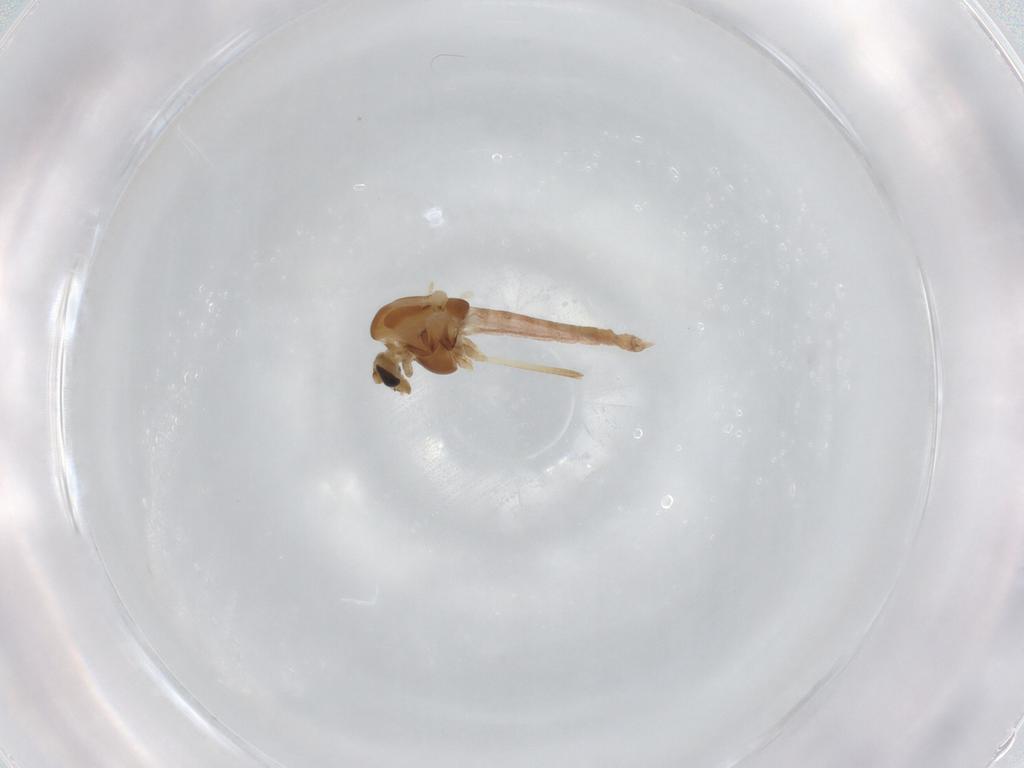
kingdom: Animalia
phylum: Arthropoda
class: Insecta
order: Diptera
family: Chironomidae
